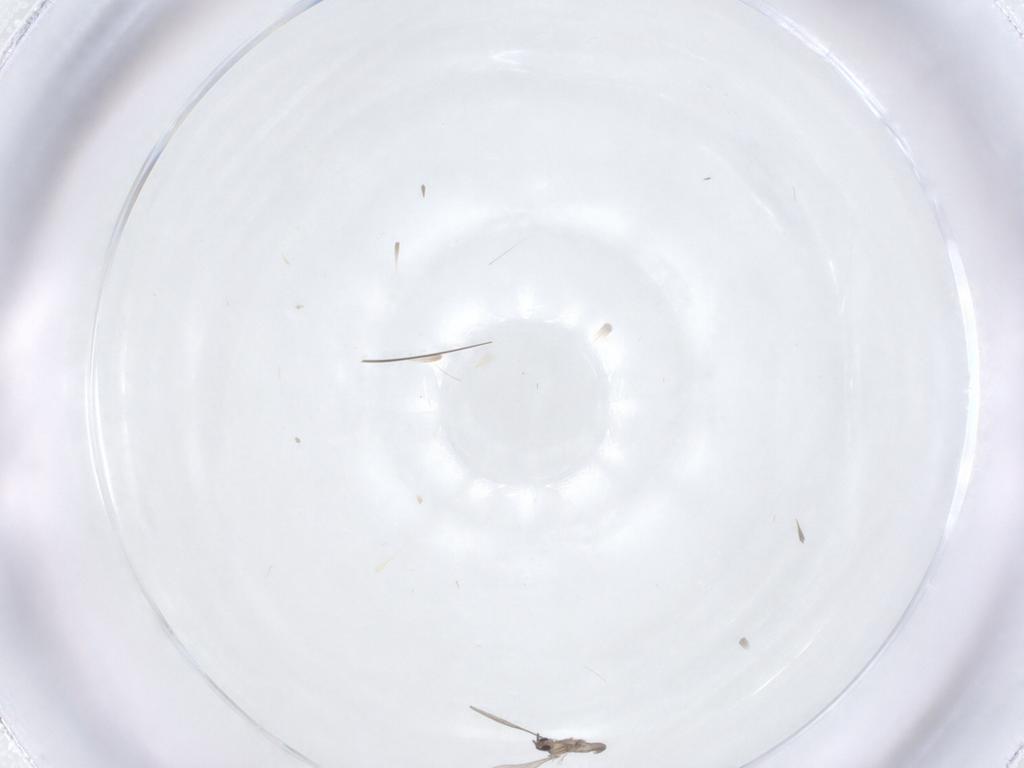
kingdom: Animalia
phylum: Arthropoda
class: Insecta
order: Diptera
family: Cecidomyiidae
